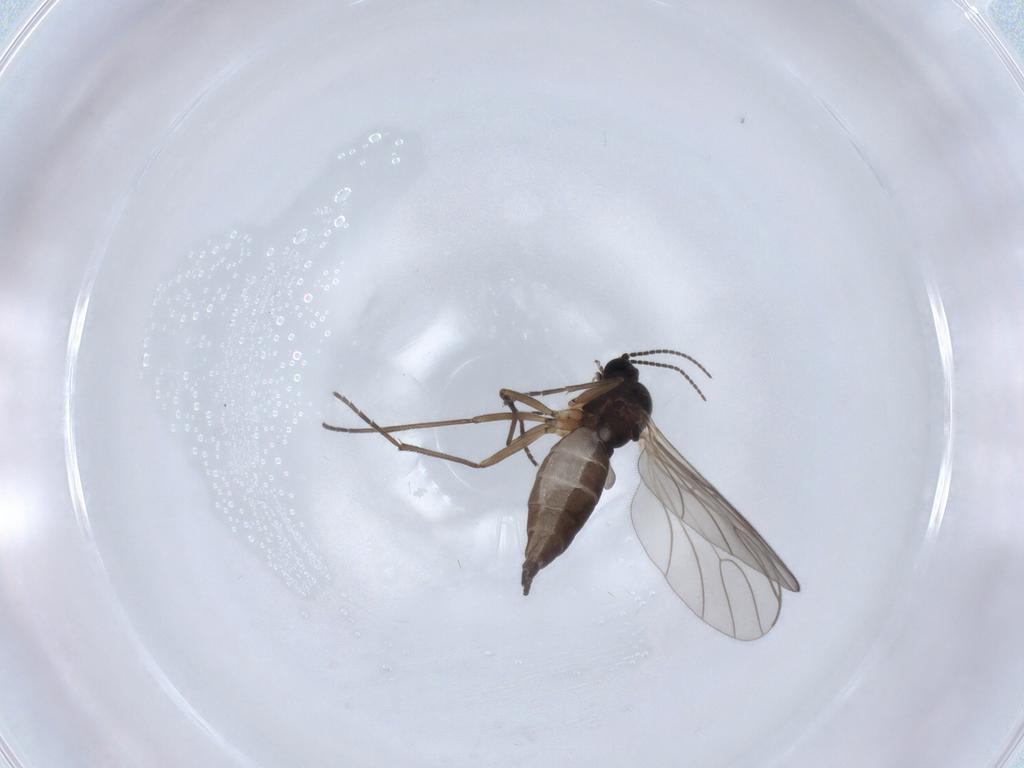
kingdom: Animalia
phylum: Arthropoda
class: Insecta
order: Diptera
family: Sciaridae
